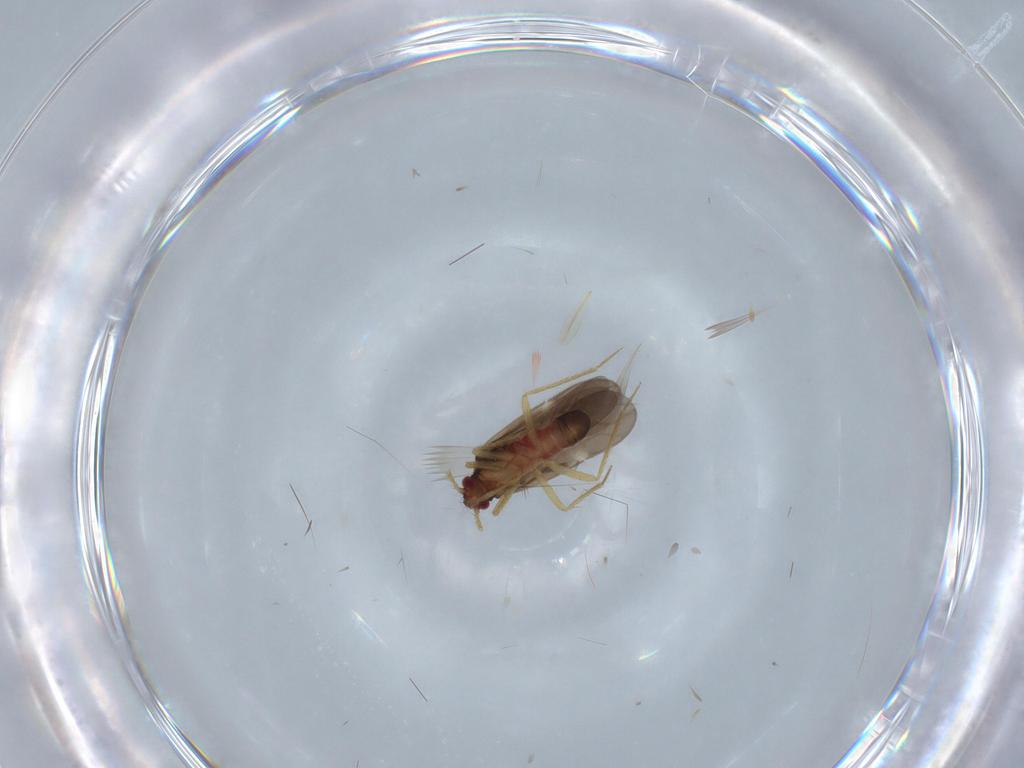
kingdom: Animalia
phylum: Arthropoda
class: Insecta
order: Hemiptera
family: Ceratocombidae
